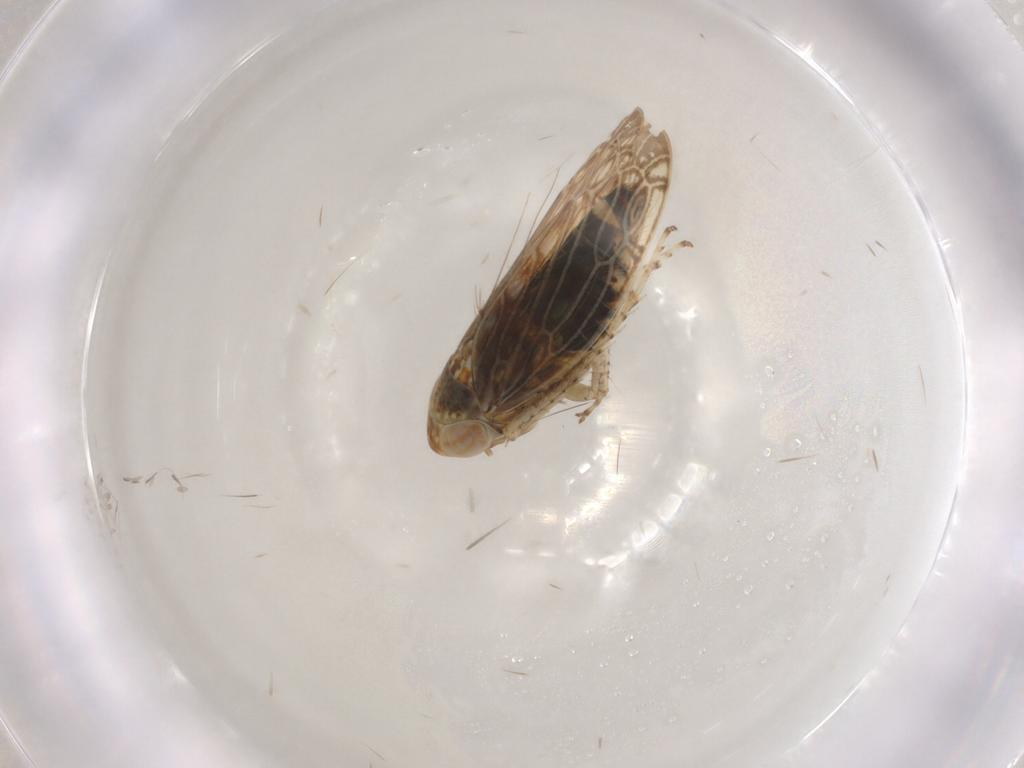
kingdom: Animalia
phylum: Arthropoda
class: Insecta
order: Hemiptera
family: Cicadellidae
